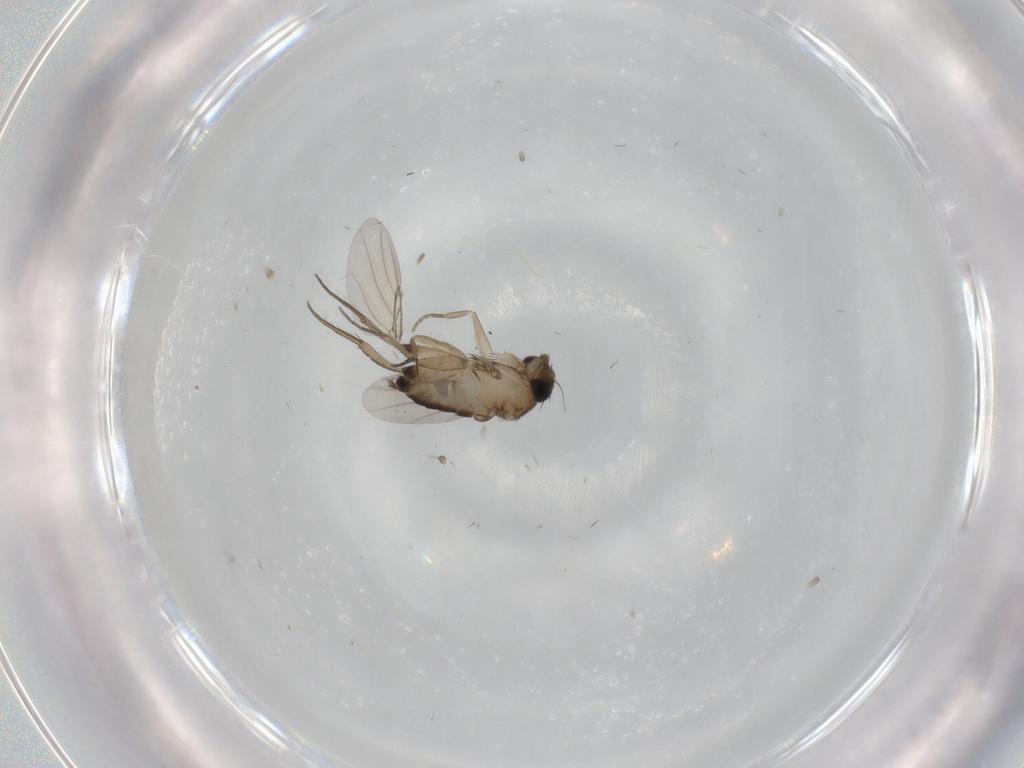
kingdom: Animalia
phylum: Arthropoda
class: Insecta
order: Diptera
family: Phoridae
